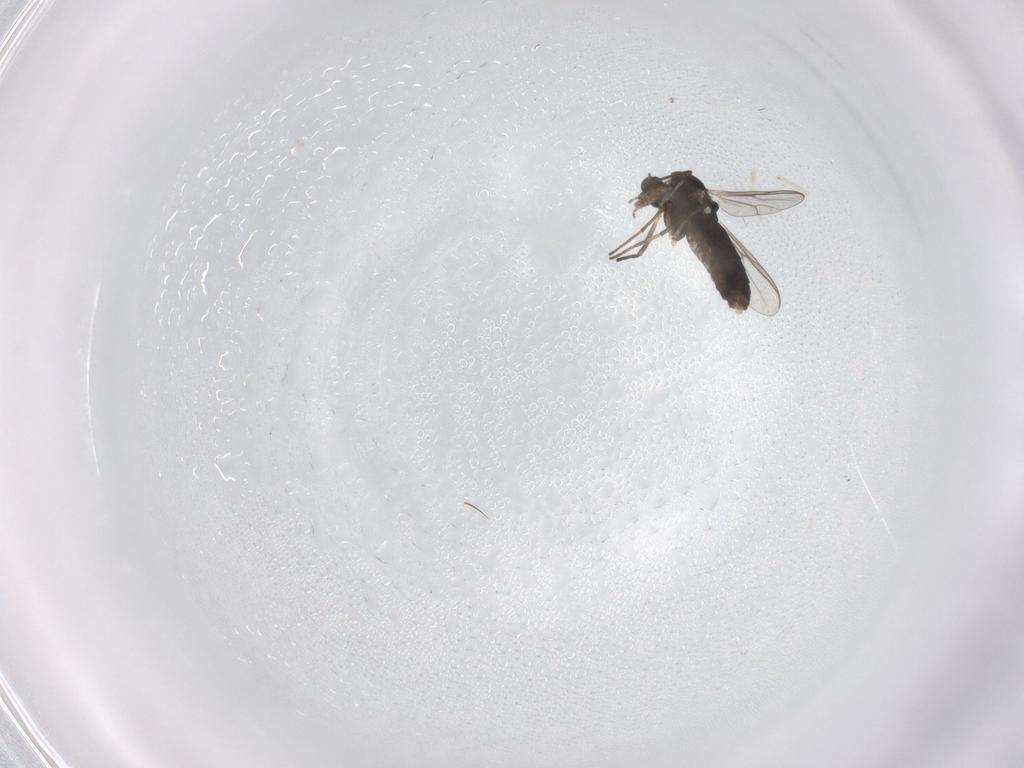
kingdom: Animalia
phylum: Arthropoda
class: Insecta
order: Diptera
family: Chironomidae
